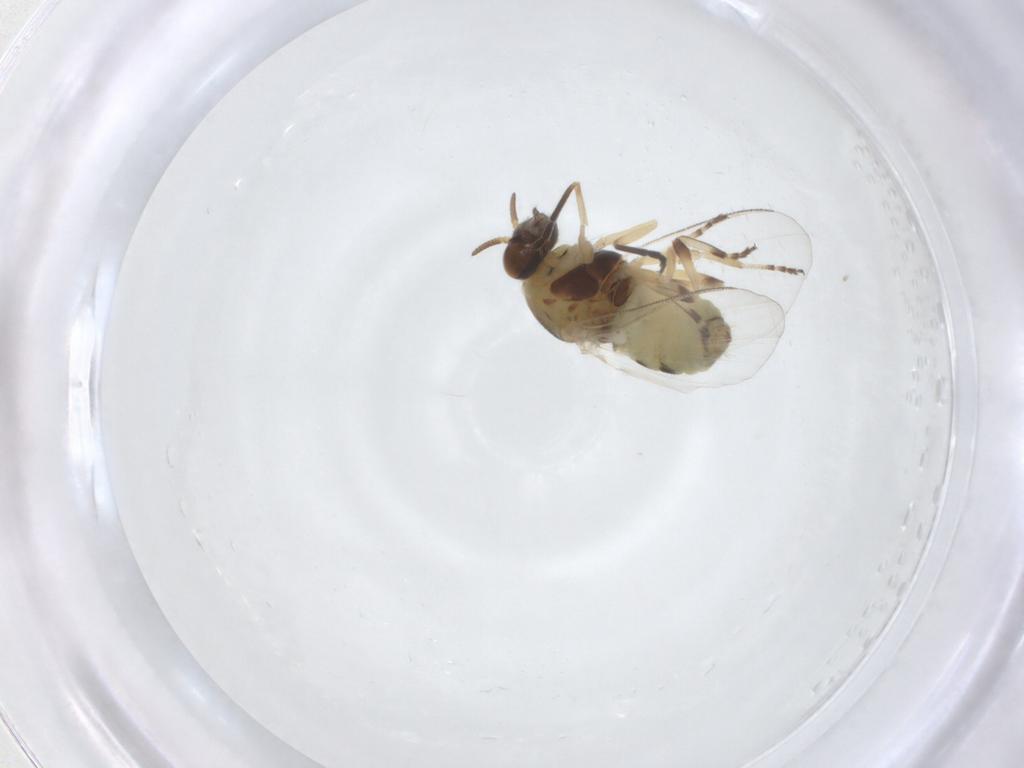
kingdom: Animalia
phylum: Arthropoda
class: Insecta
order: Diptera
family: Simuliidae
